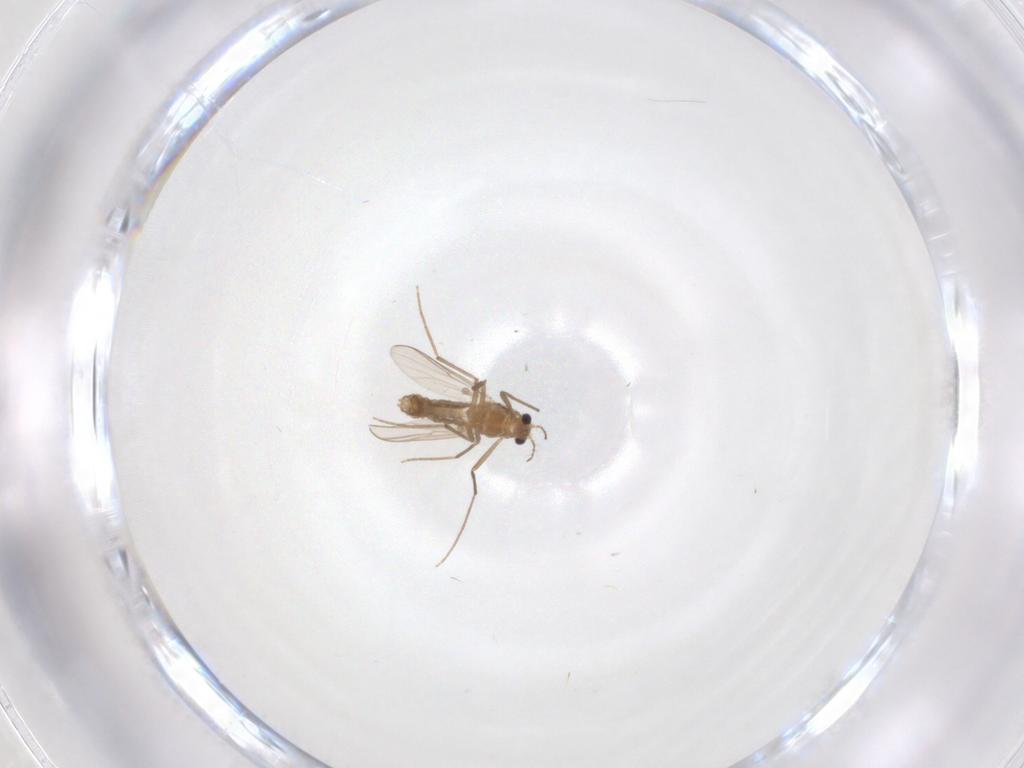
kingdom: Animalia
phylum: Arthropoda
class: Insecta
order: Diptera
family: Chironomidae
